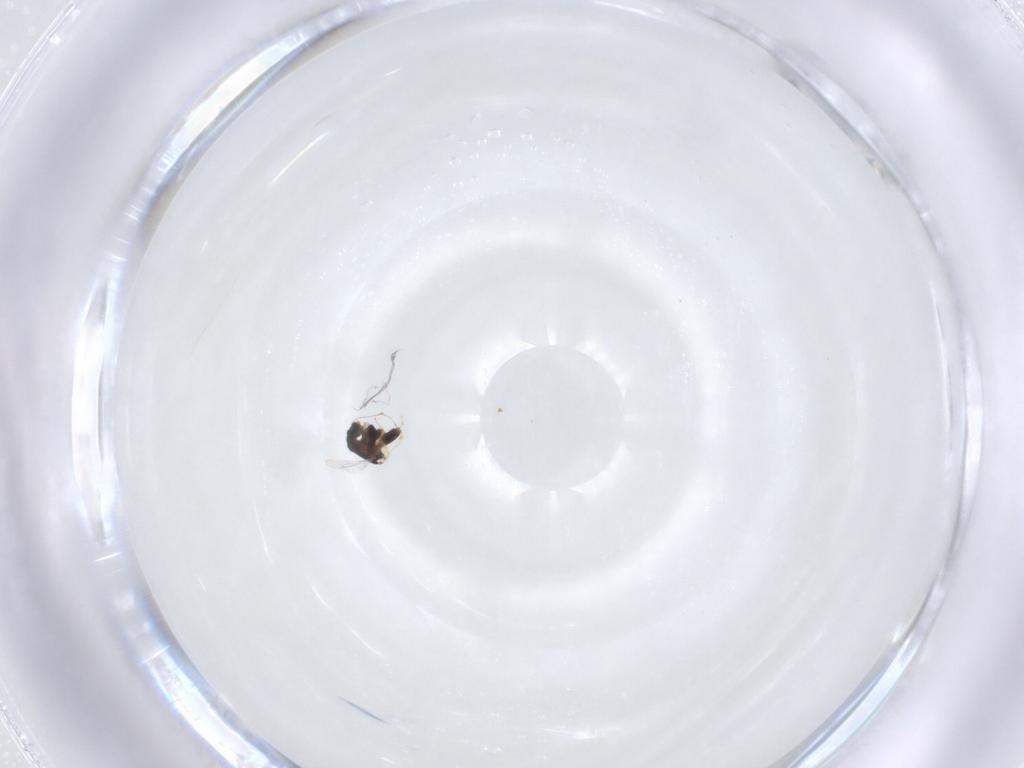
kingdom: Animalia
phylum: Arthropoda
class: Insecta
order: Diptera
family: Chironomidae
